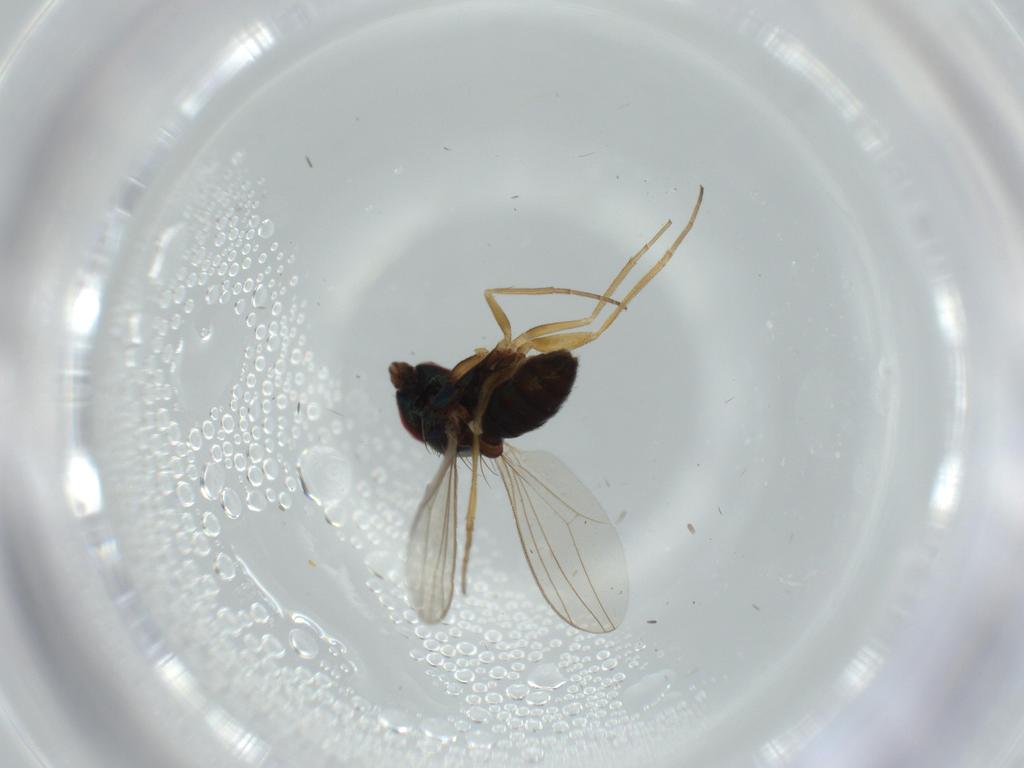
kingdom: Animalia
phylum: Arthropoda
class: Insecta
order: Diptera
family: Dolichopodidae
